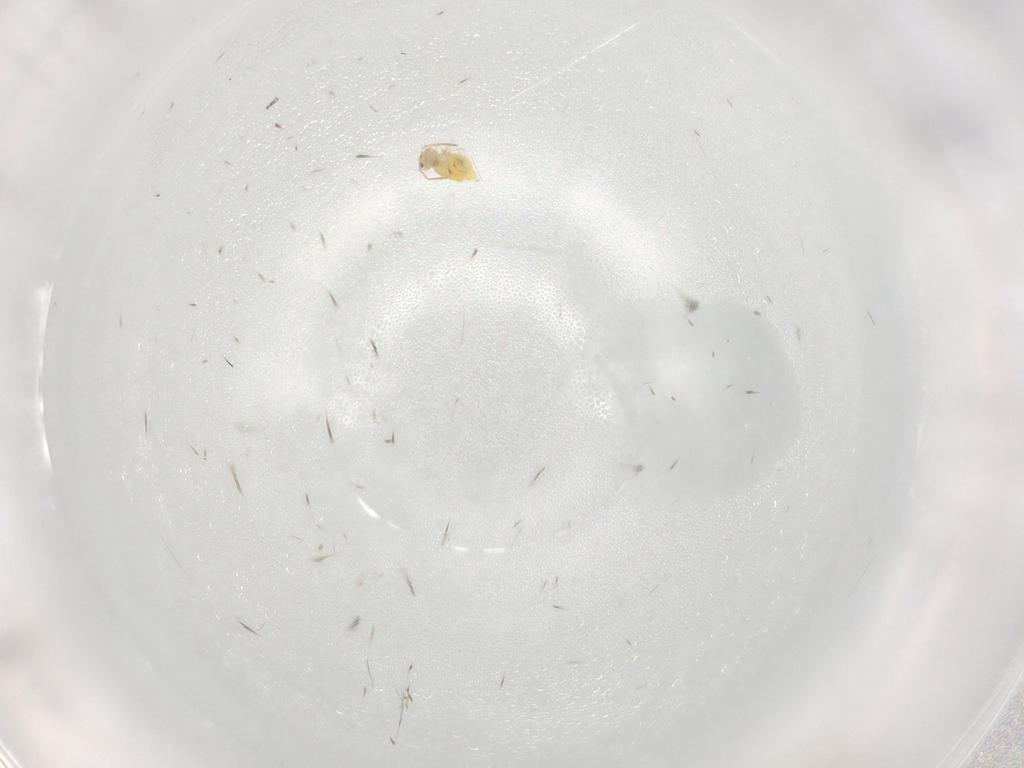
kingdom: Animalia
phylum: Arthropoda
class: Collembola
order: Symphypleona
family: Bourletiellidae
